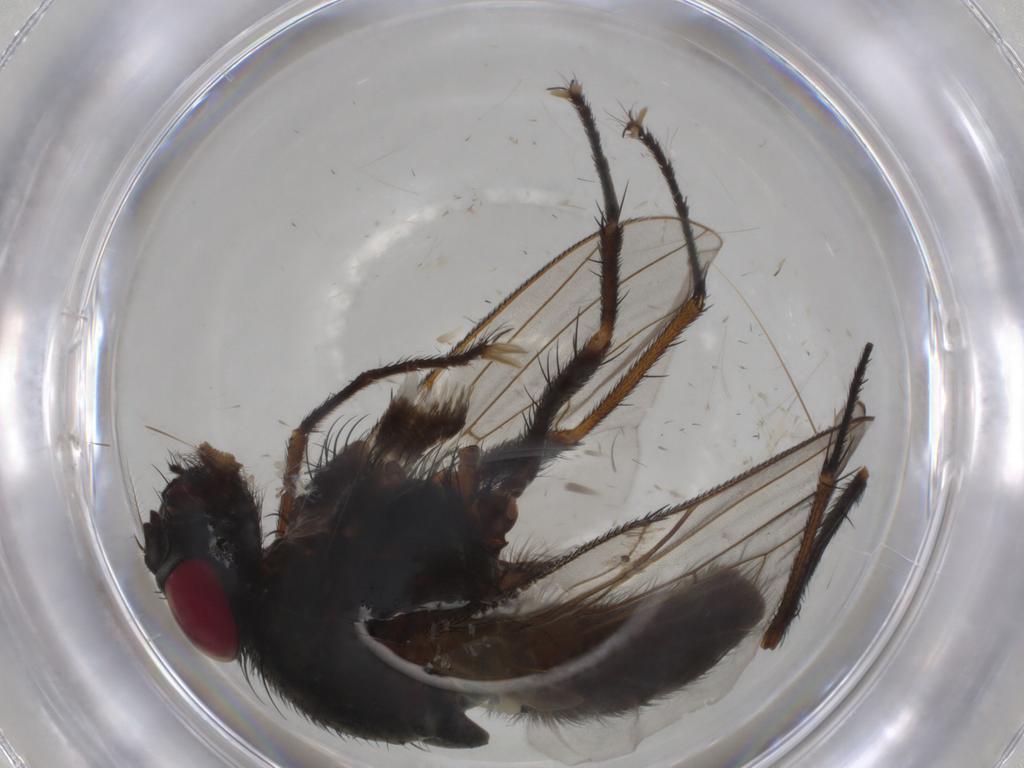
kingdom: Animalia
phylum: Arthropoda
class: Insecta
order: Diptera
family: Muscidae
